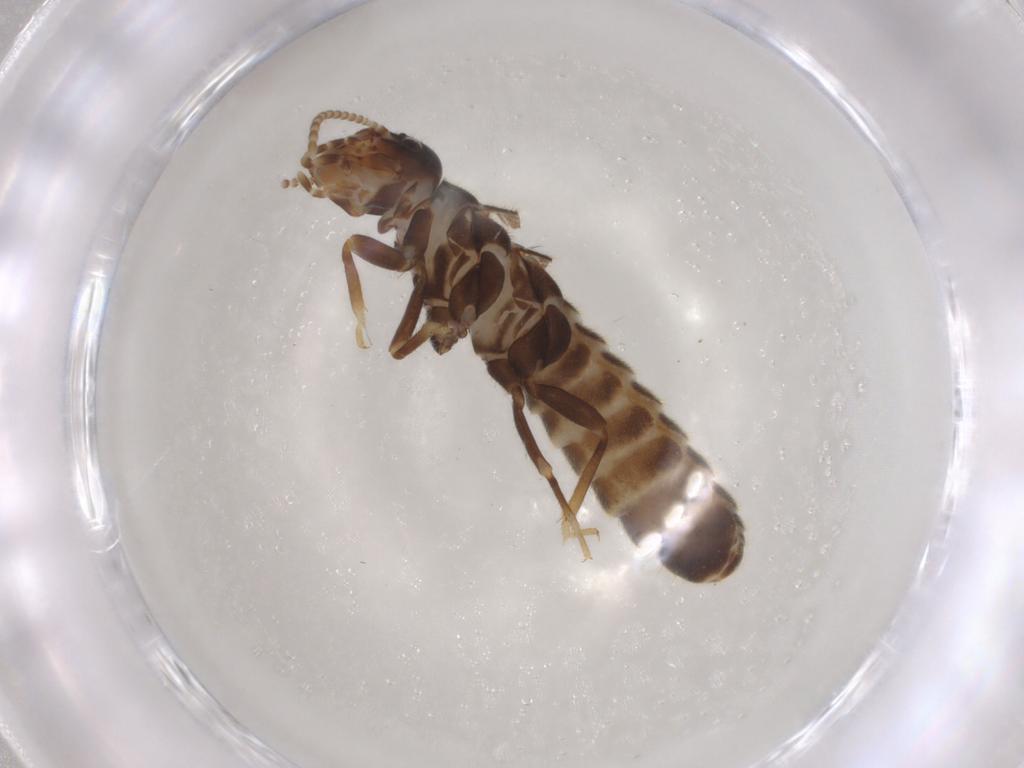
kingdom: Animalia
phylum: Arthropoda
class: Insecta
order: Blattodea
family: Termitidae
